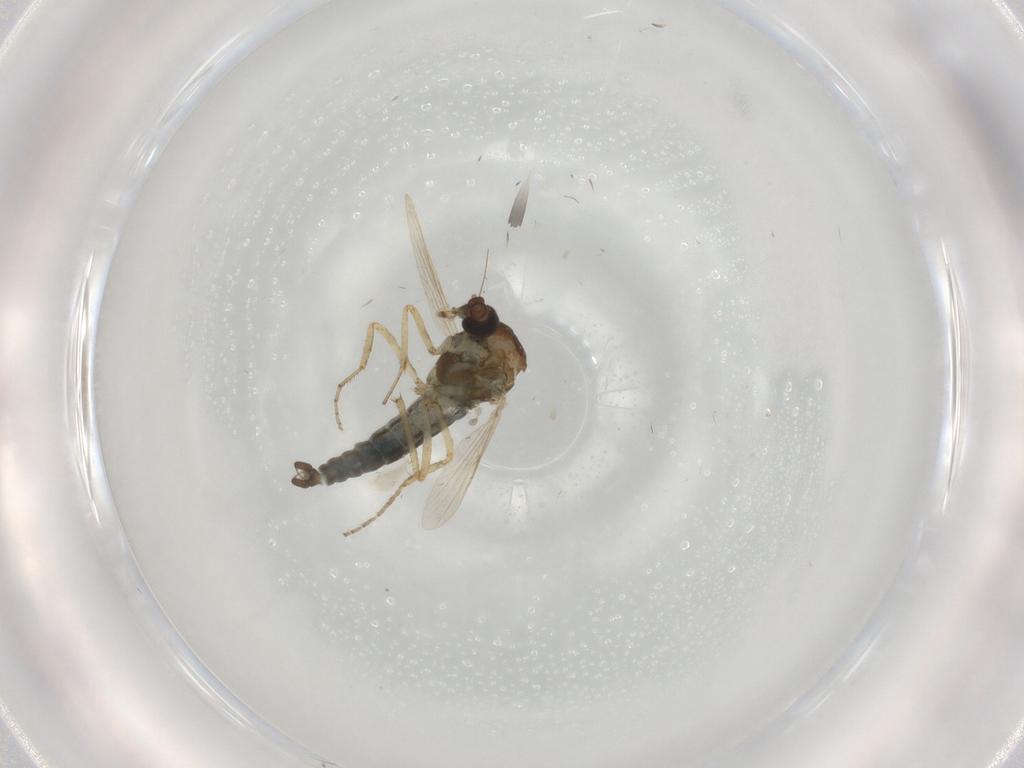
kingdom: Animalia
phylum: Arthropoda
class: Insecta
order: Diptera
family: Ceratopogonidae
